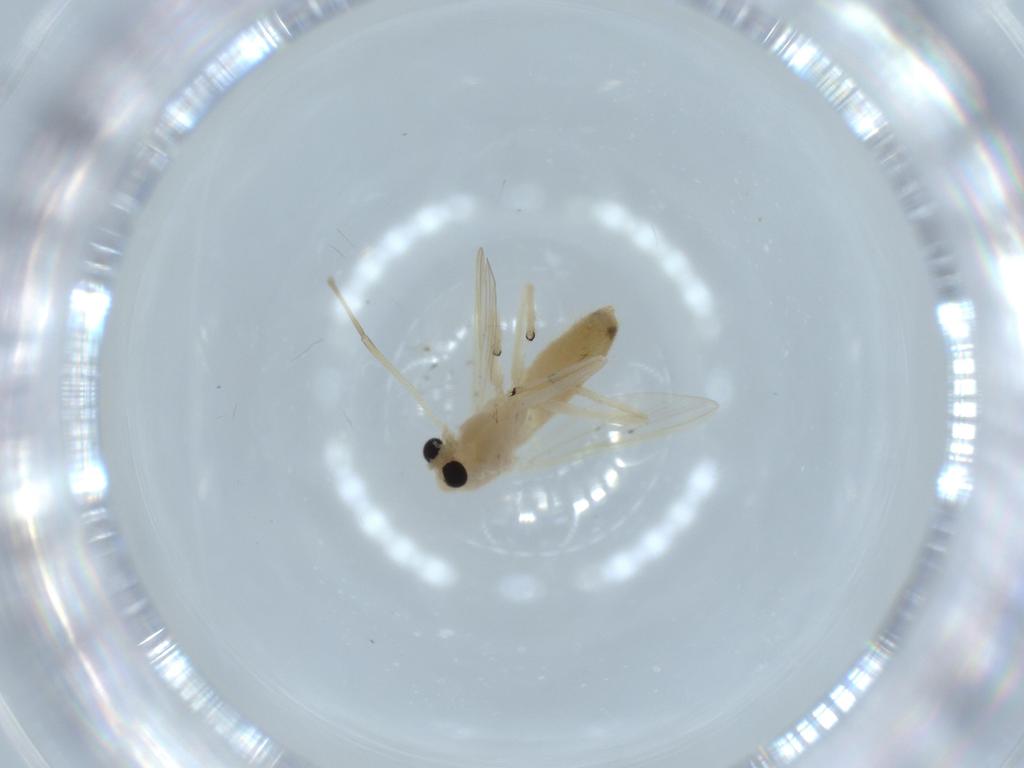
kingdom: Animalia
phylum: Arthropoda
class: Insecta
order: Diptera
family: Chironomidae
